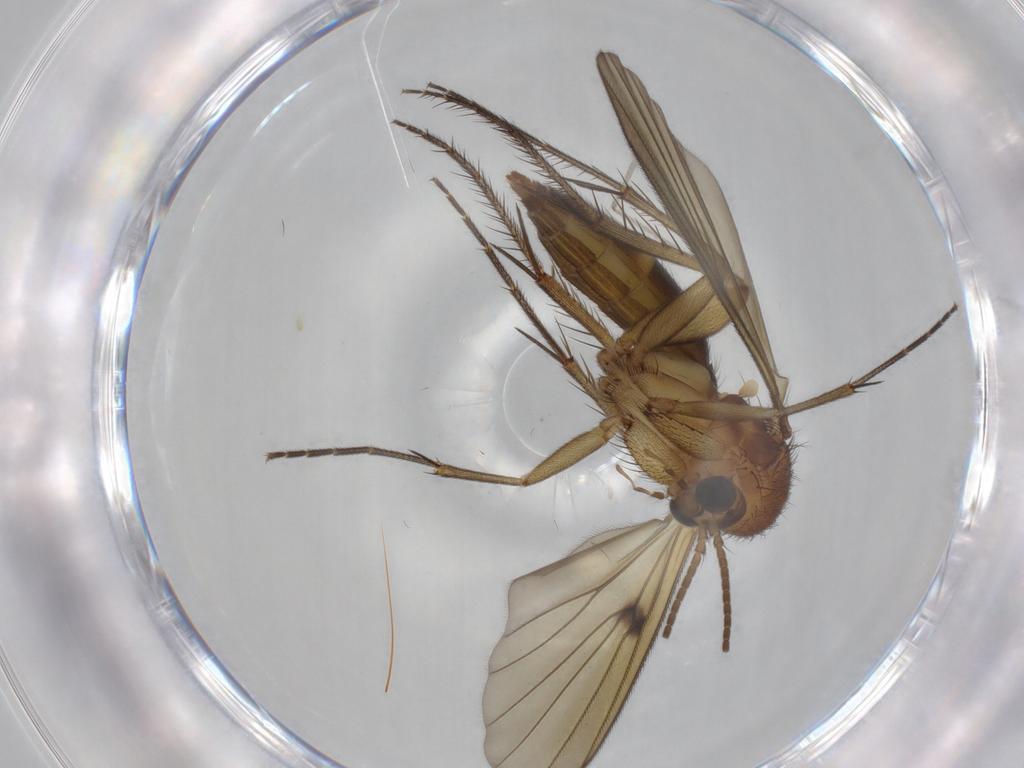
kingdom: Animalia
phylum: Arthropoda
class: Insecta
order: Diptera
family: Mycetophilidae
